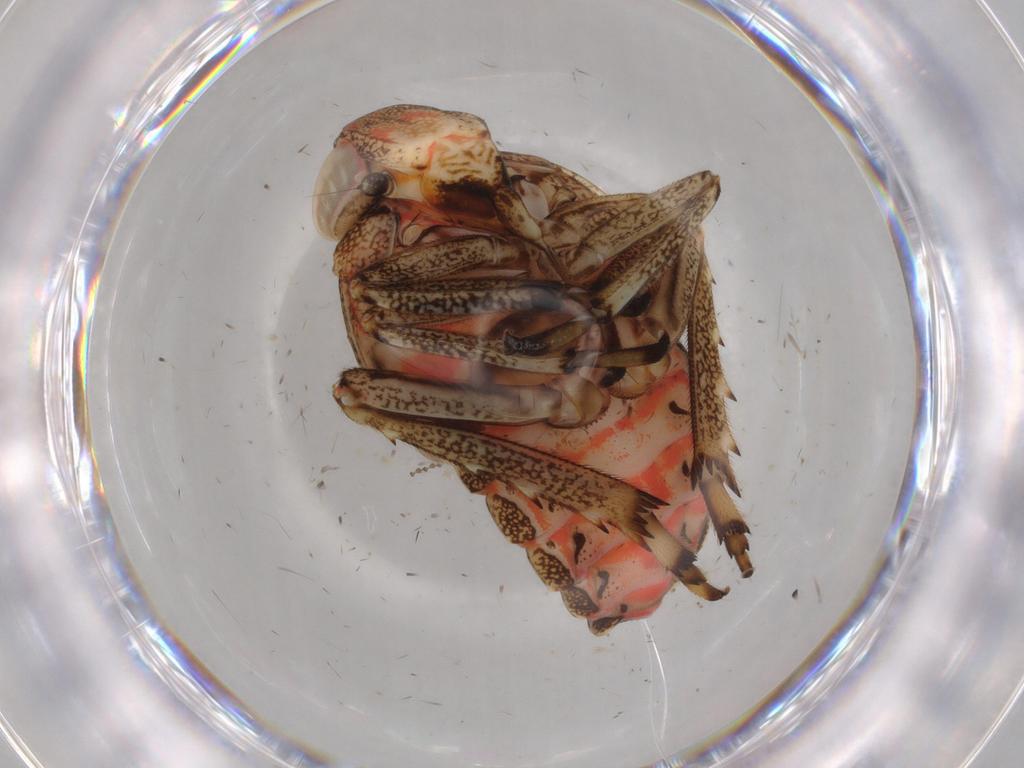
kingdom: Animalia
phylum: Arthropoda
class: Insecta
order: Hemiptera
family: Issidae
